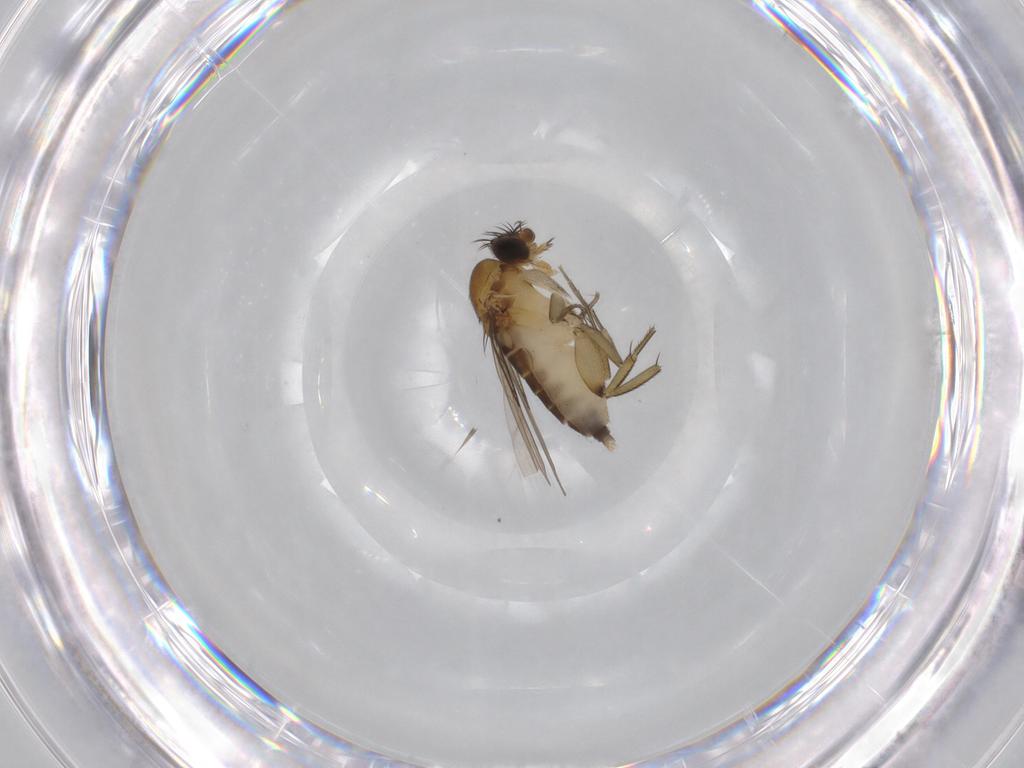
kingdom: Animalia
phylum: Arthropoda
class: Insecta
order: Diptera
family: Phoridae
